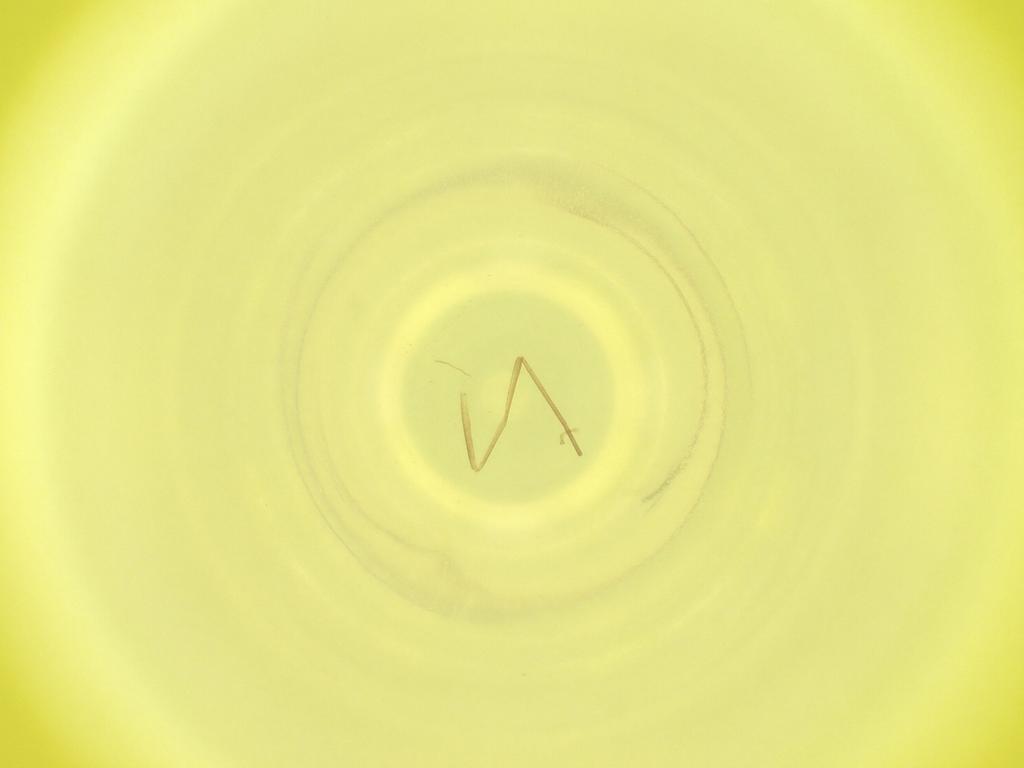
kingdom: Animalia
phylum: Arthropoda
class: Insecta
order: Diptera
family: Cecidomyiidae
